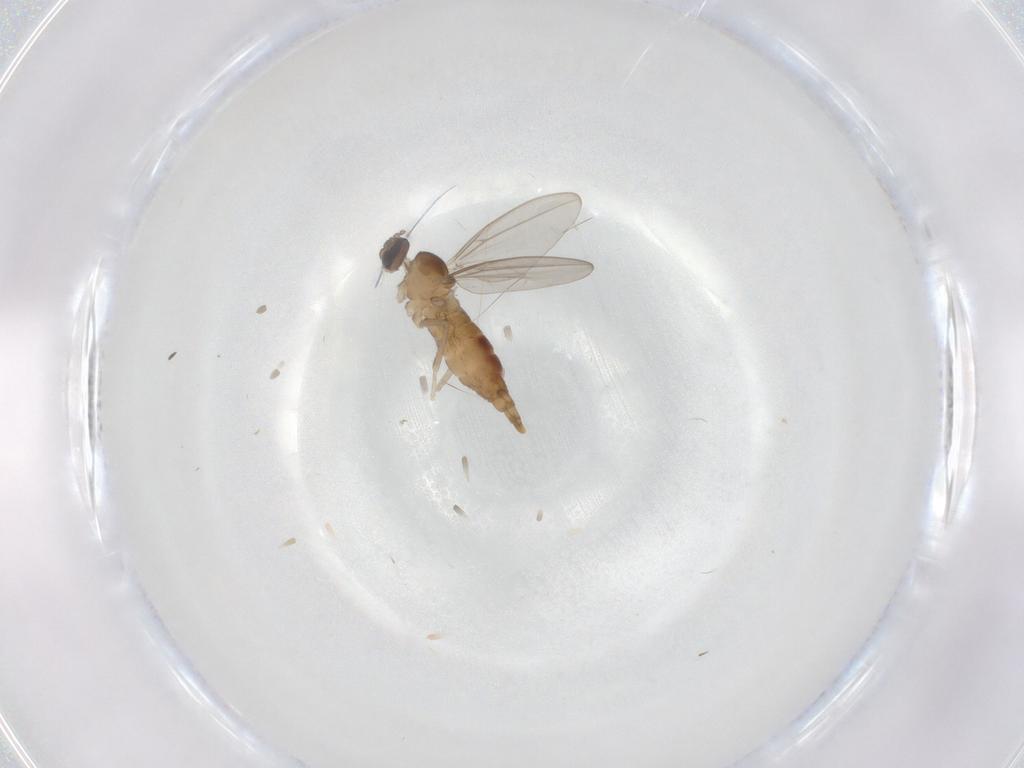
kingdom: Animalia
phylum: Arthropoda
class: Insecta
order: Diptera
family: Cecidomyiidae
